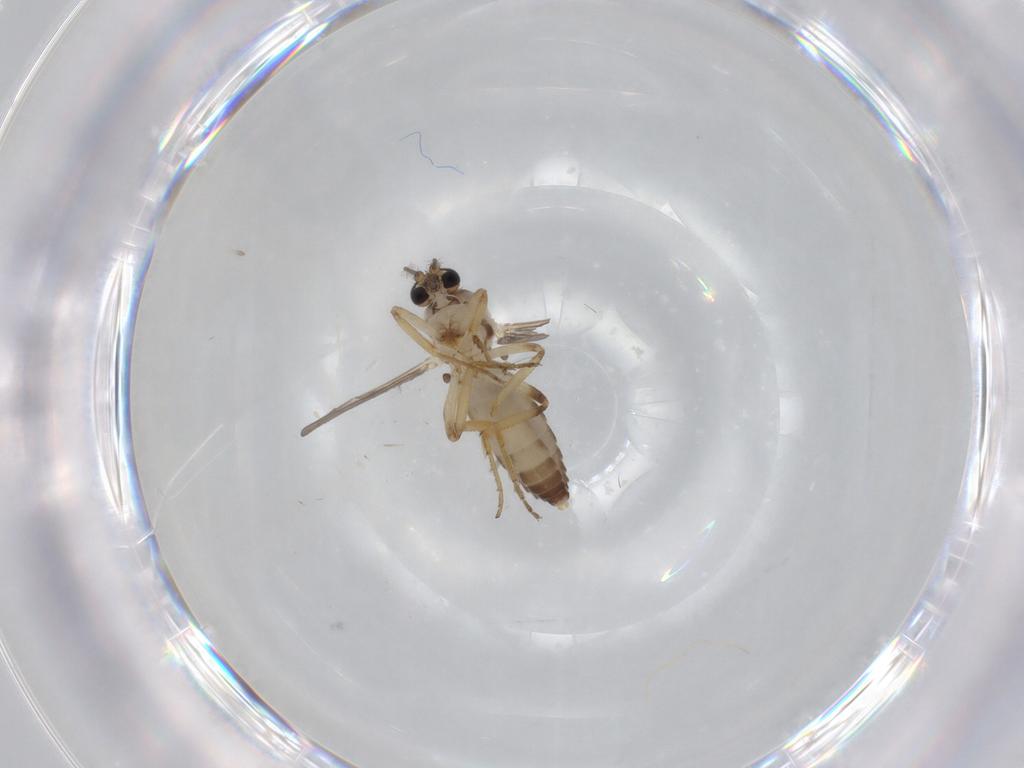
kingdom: Animalia
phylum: Arthropoda
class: Insecta
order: Diptera
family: Ceratopogonidae
